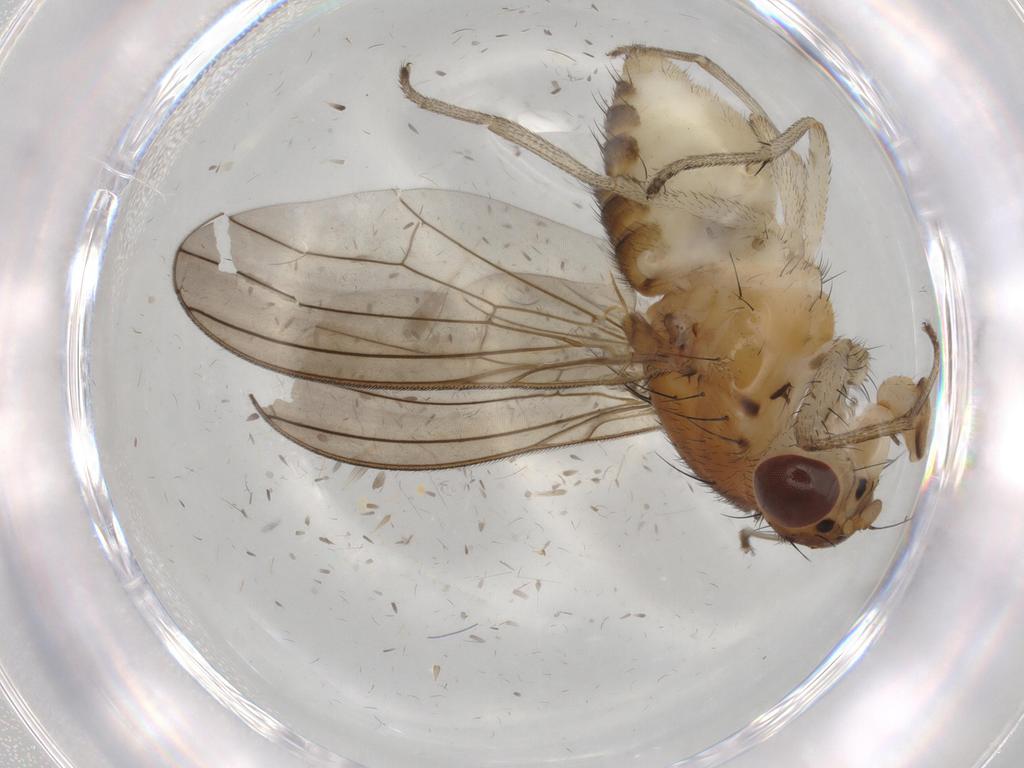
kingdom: Animalia
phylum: Arthropoda
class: Insecta
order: Diptera
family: Lauxaniidae
